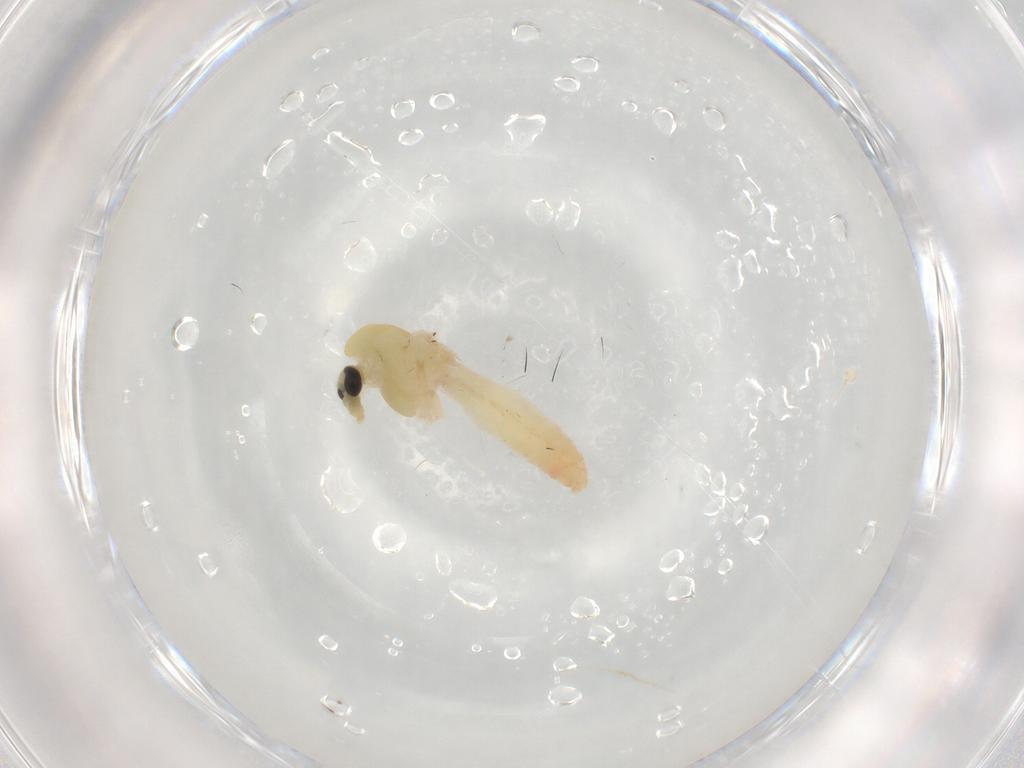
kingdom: Animalia
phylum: Arthropoda
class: Insecta
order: Diptera
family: Chironomidae
